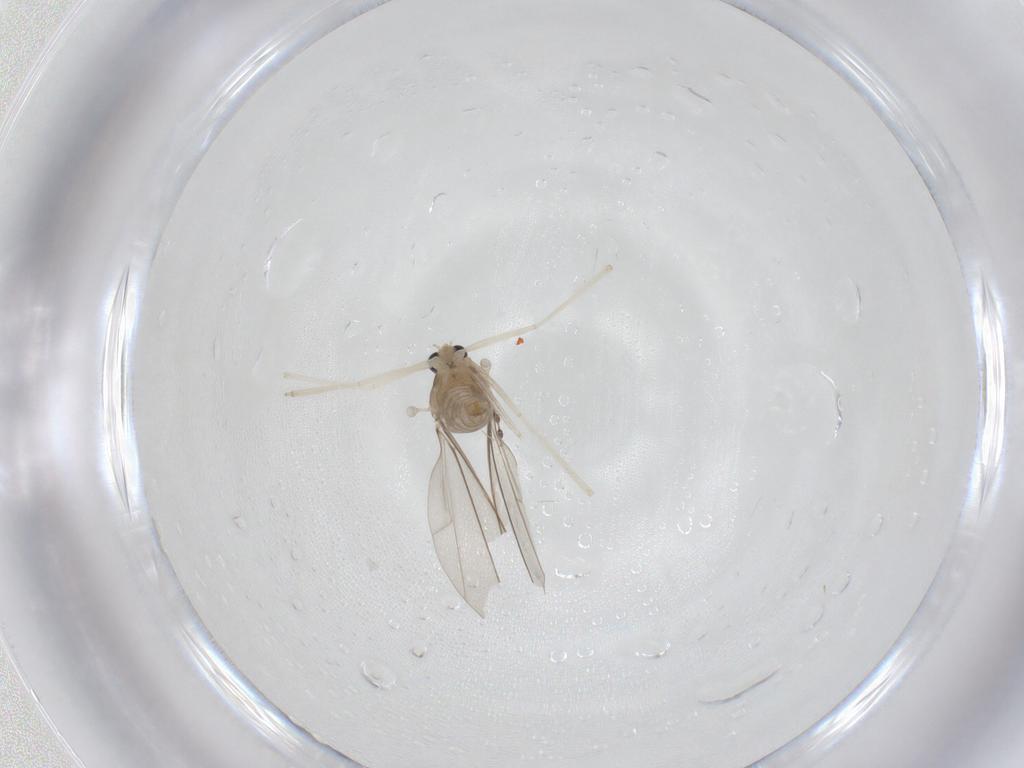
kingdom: Animalia
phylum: Arthropoda
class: Insecta
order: Diptera
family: Cecidomyiidae
